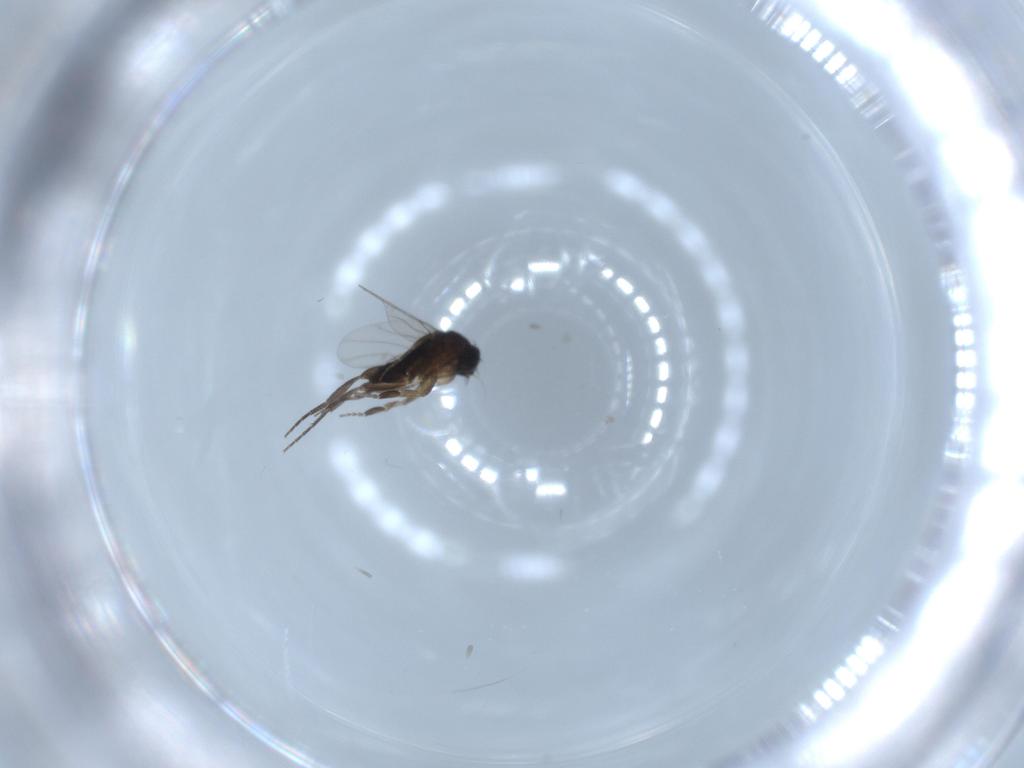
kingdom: Animalia
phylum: Arthropoda
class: Insecta
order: Diptera
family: Phoridae
